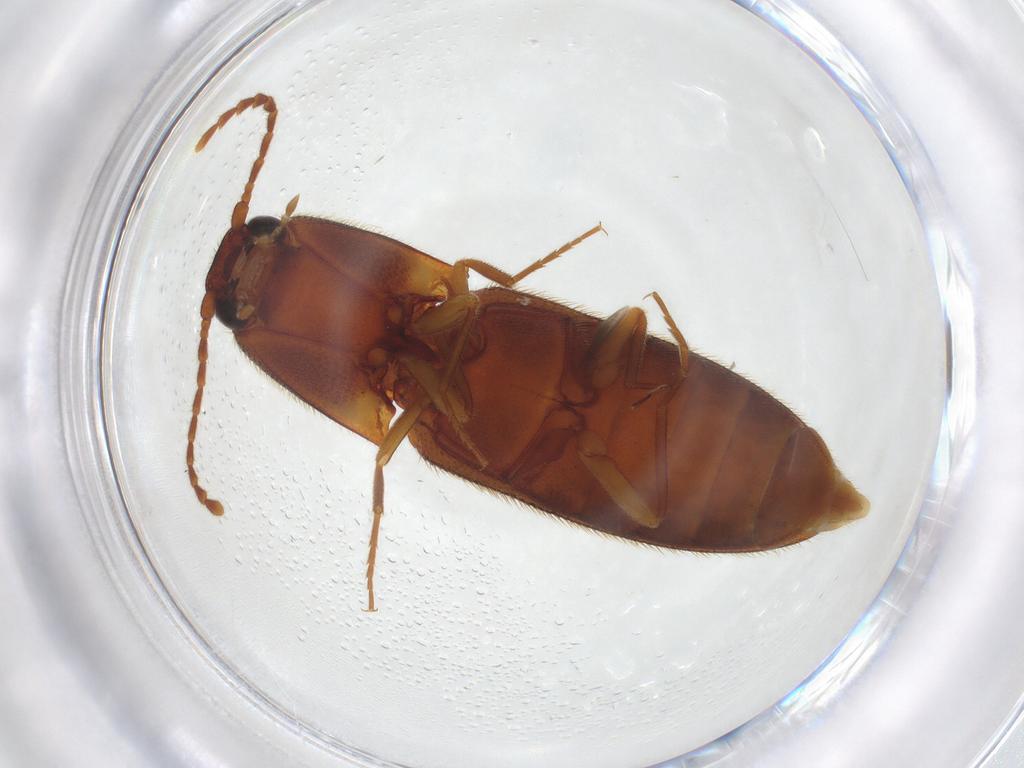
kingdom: Animalia
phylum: Arthropoda
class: Insecta
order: Coleoptera
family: Elateridae
